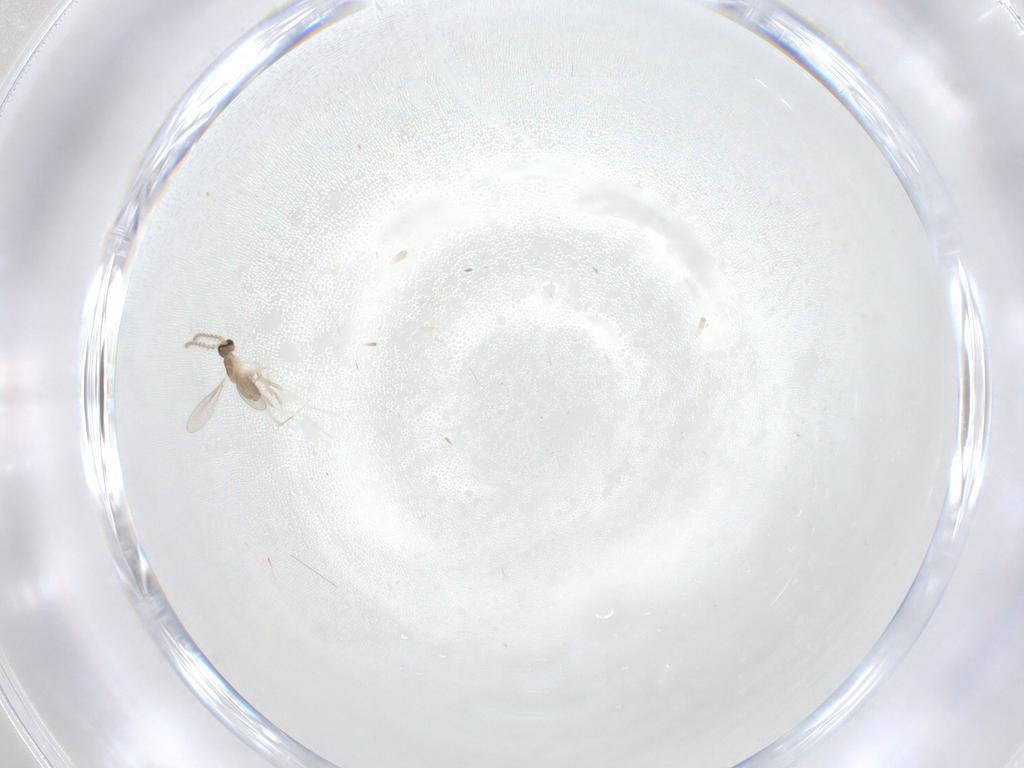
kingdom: Animalia
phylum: Arthropoda
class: Insecta
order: Diptera
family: Cecidomyiidae
